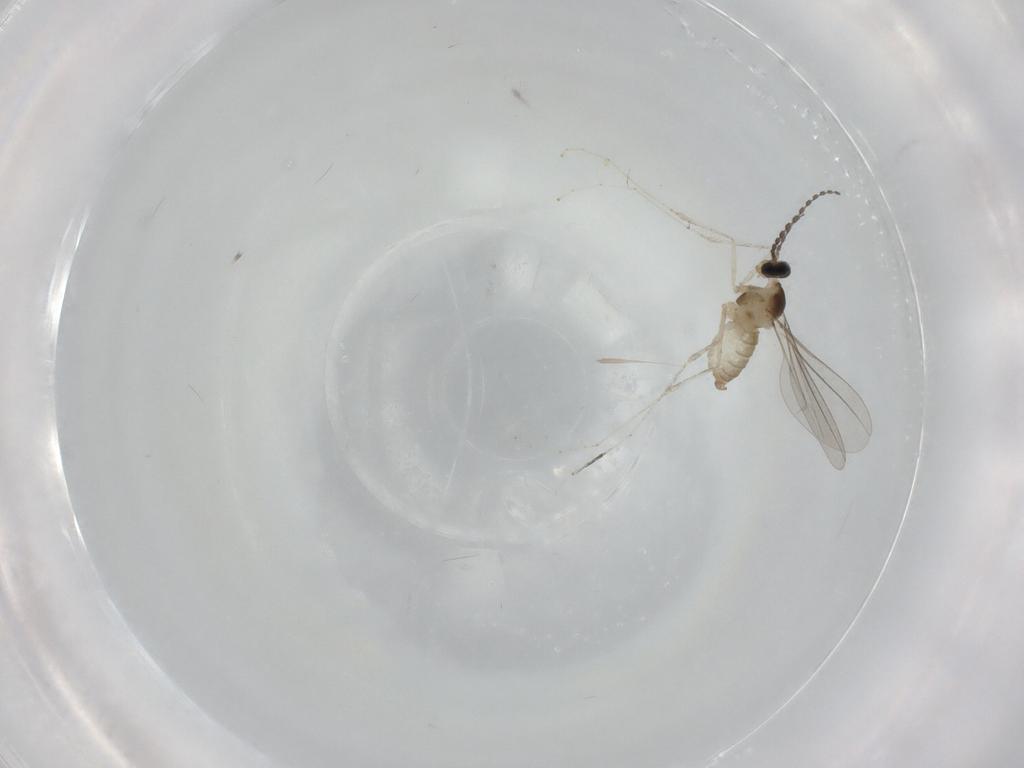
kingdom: Animalia
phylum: Arthropoda
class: Insecta
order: Diptera
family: Cecidomyiidae
